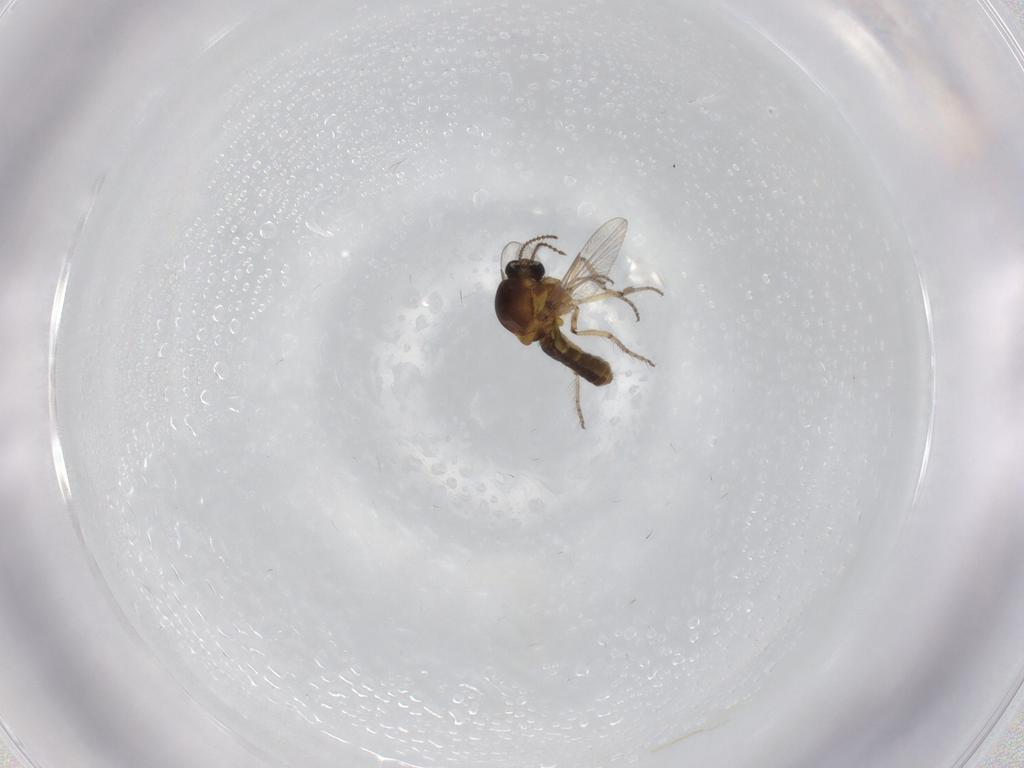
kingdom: Animalia
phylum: Arthropoda
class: Insecta
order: Diptera
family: Ceratopogonidae
